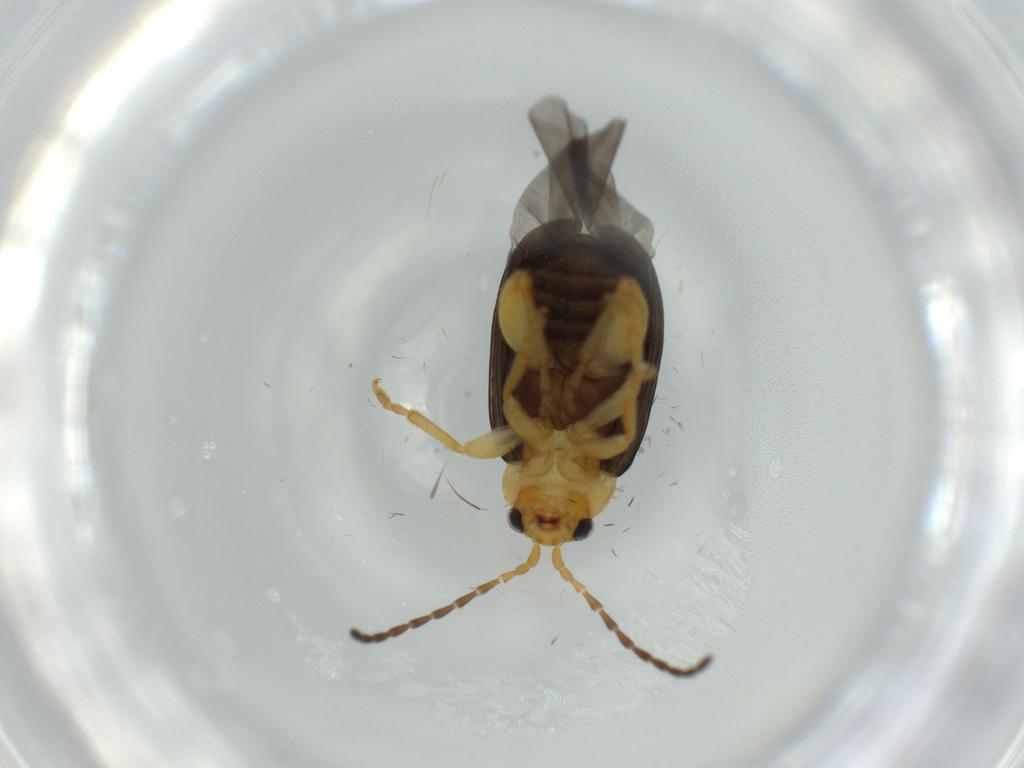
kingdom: Animalia
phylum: Arthropoda
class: Insecta
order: Coleoptera
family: Chrysomelidae
